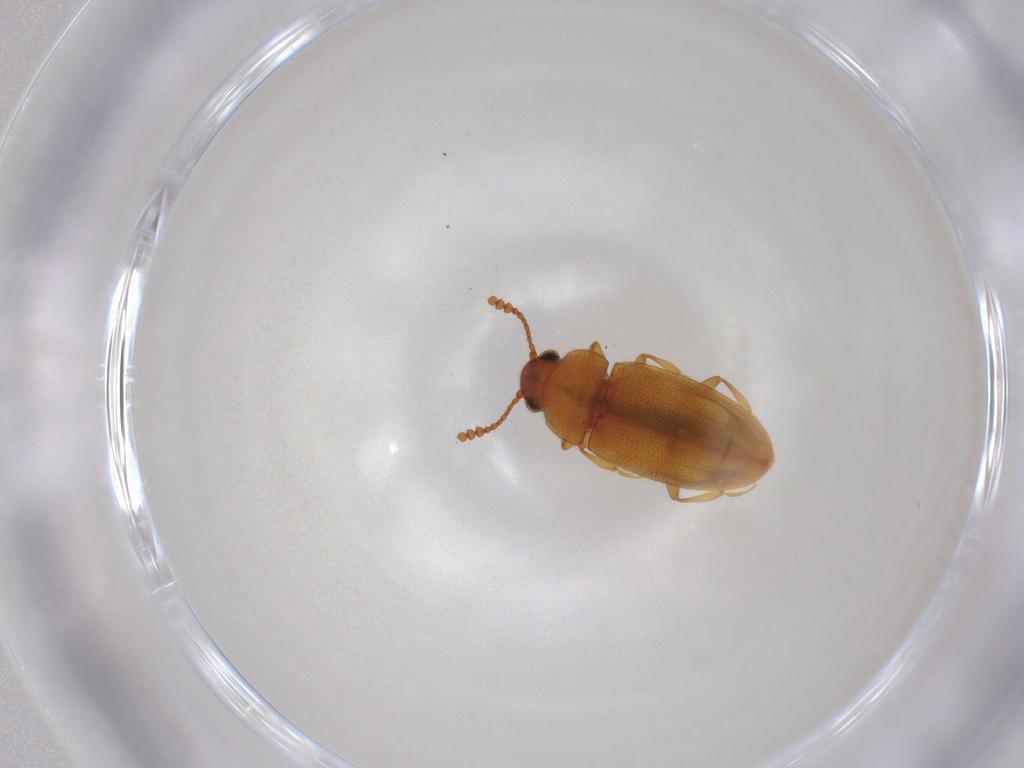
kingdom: Animalia
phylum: Arthropoda
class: Insecta
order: Coleoptera
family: Erotylidae
